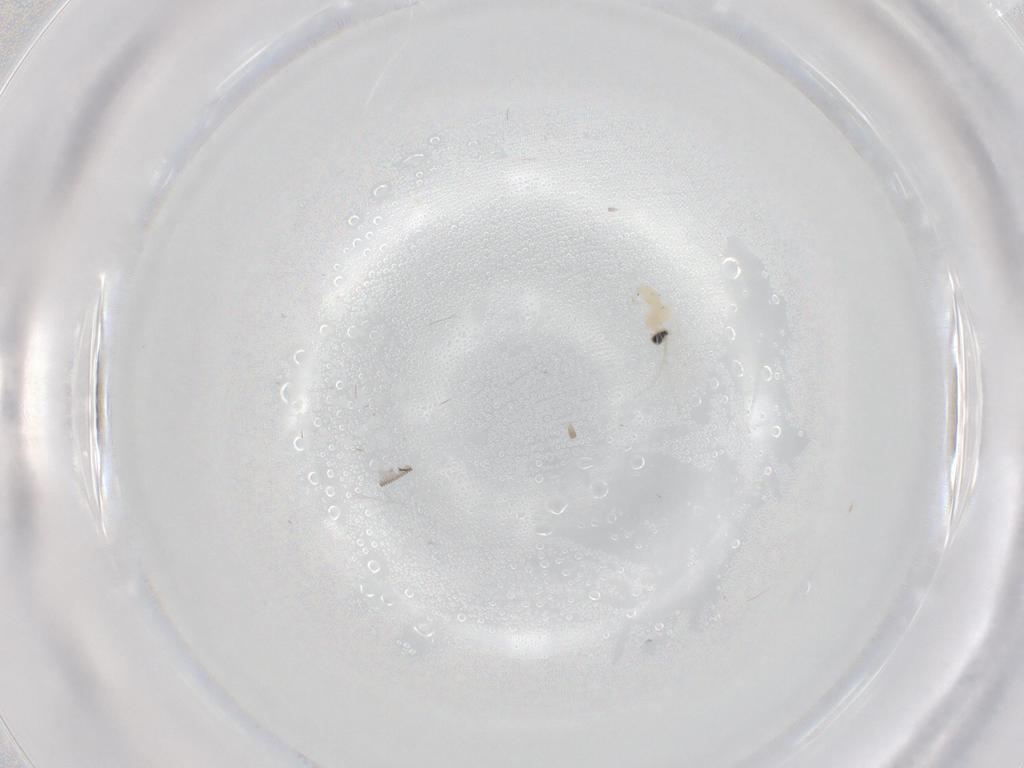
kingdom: Animalia
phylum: Arthropoda
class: Insecta
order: Diptera
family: Cecidomyiidae
